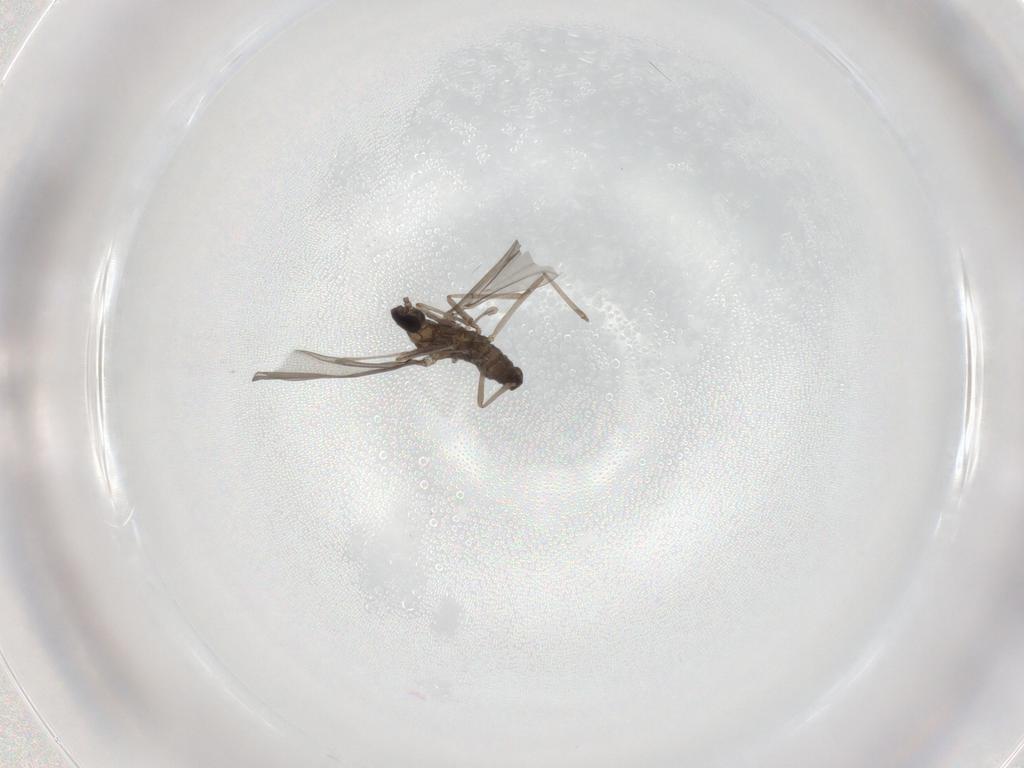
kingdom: Animalia
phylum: Arthropoda
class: Insecta
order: Diptera
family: Cecidomyiidae
